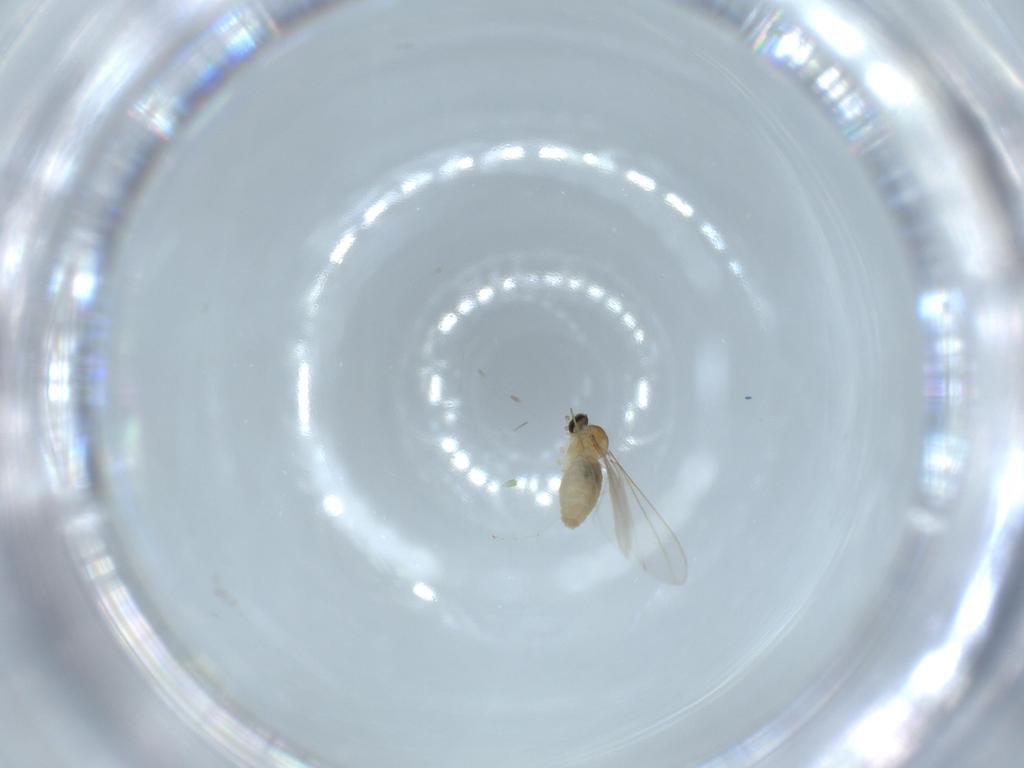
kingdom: Animalia
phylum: Arthropoda
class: Insecta
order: Diptera
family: Cecidomyiidae
